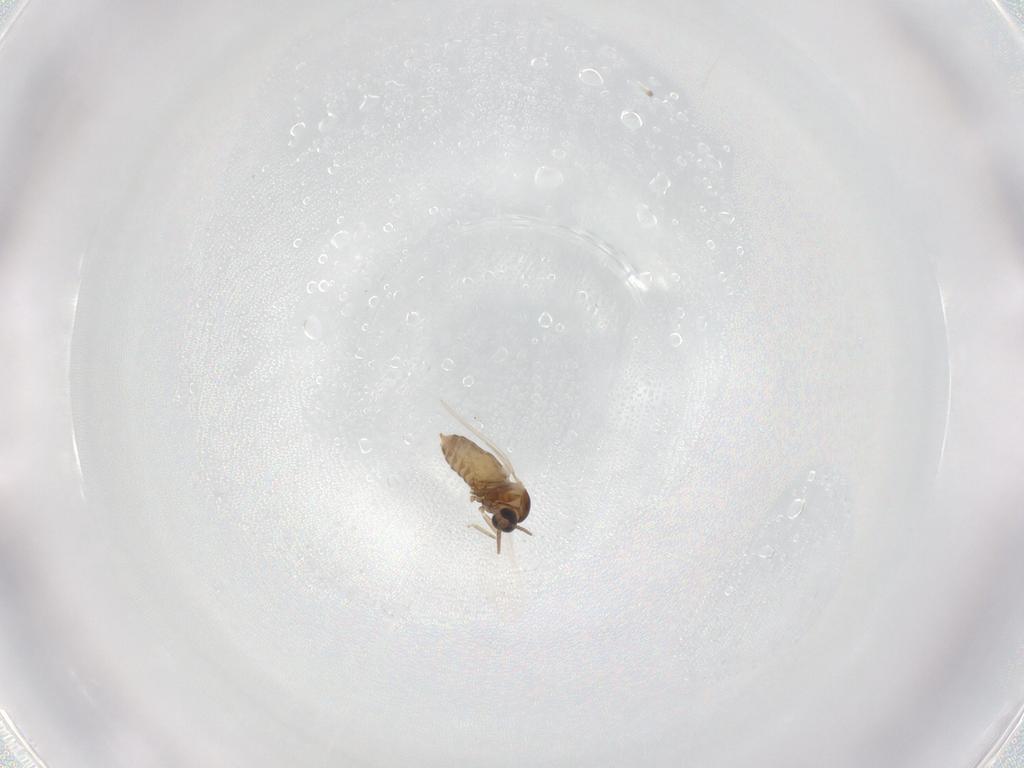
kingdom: Animalia
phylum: Arthropoda
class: Insecta
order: Diptera
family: Cecidomyiidae
